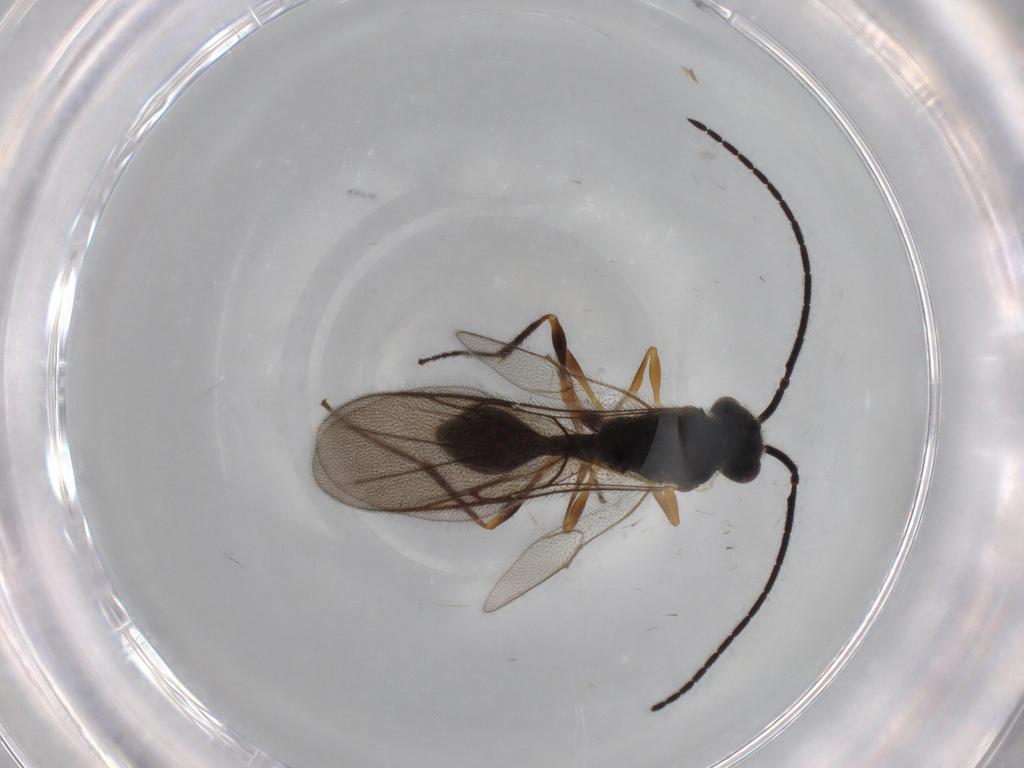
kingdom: Animalia
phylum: Arthropoda
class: Insecta
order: Hymenoptera
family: Diapriidae
